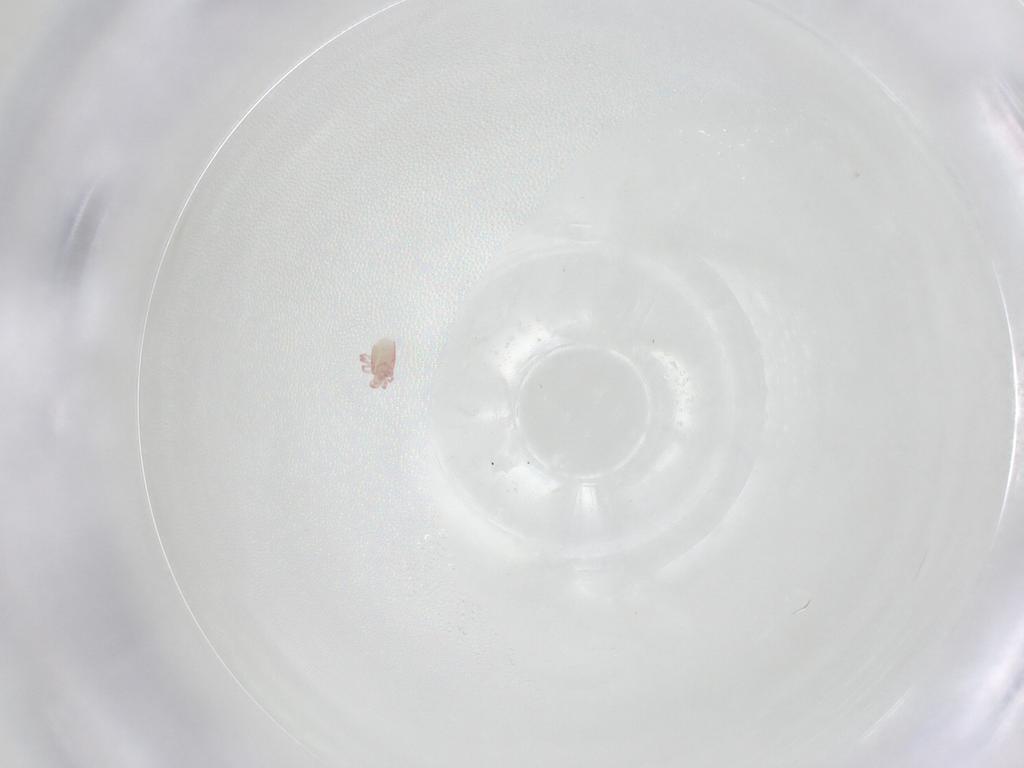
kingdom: Animalia
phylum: Arthropoda
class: Arachnida
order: Trombidiformes
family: Pionidae
